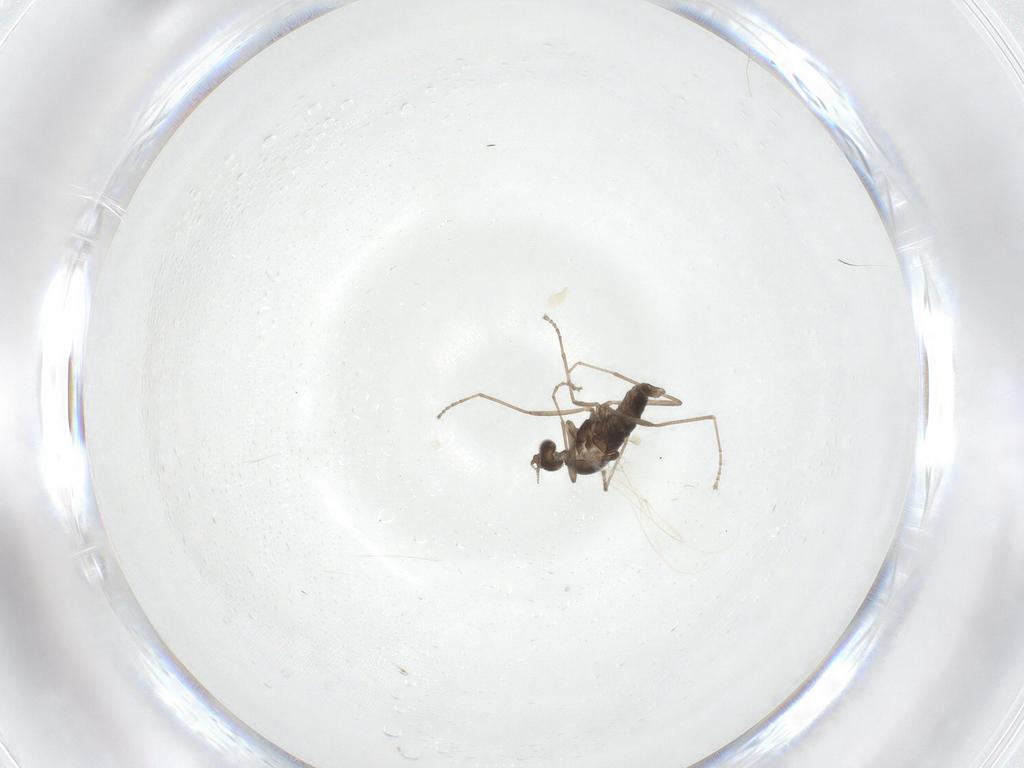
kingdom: Animalia
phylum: Arthropoda
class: Insecta
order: Diptera
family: Cecidomyiidae
